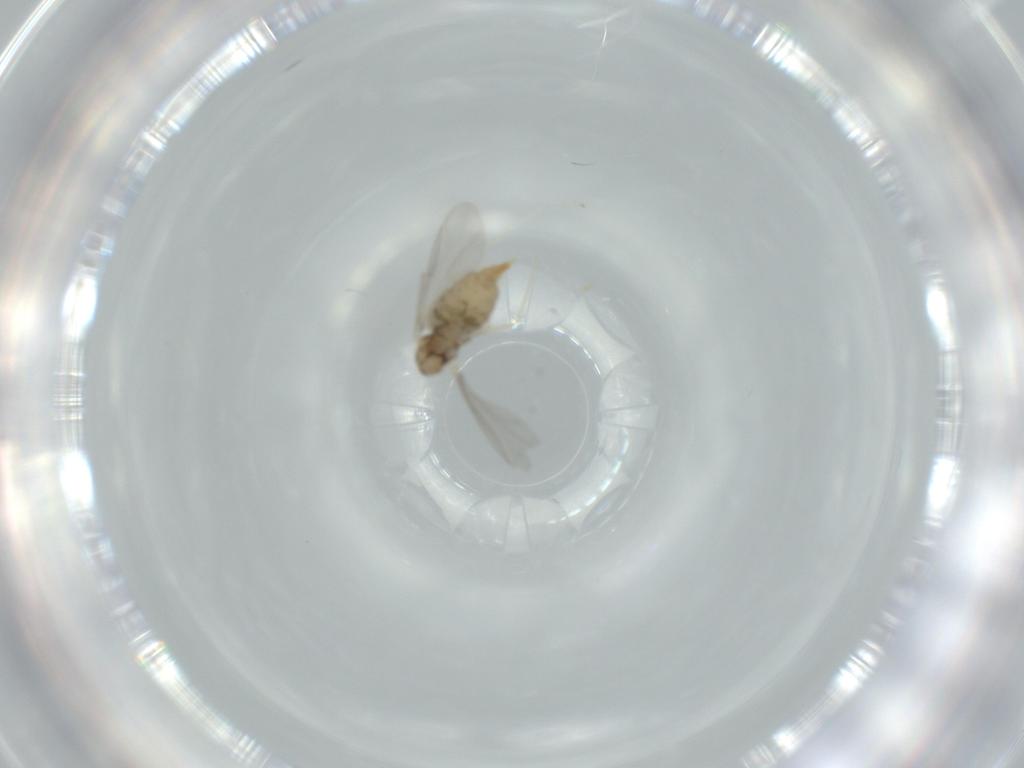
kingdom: Animalia
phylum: Arthropoda
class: Insecta
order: Diptera
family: Cecidomyiidae
